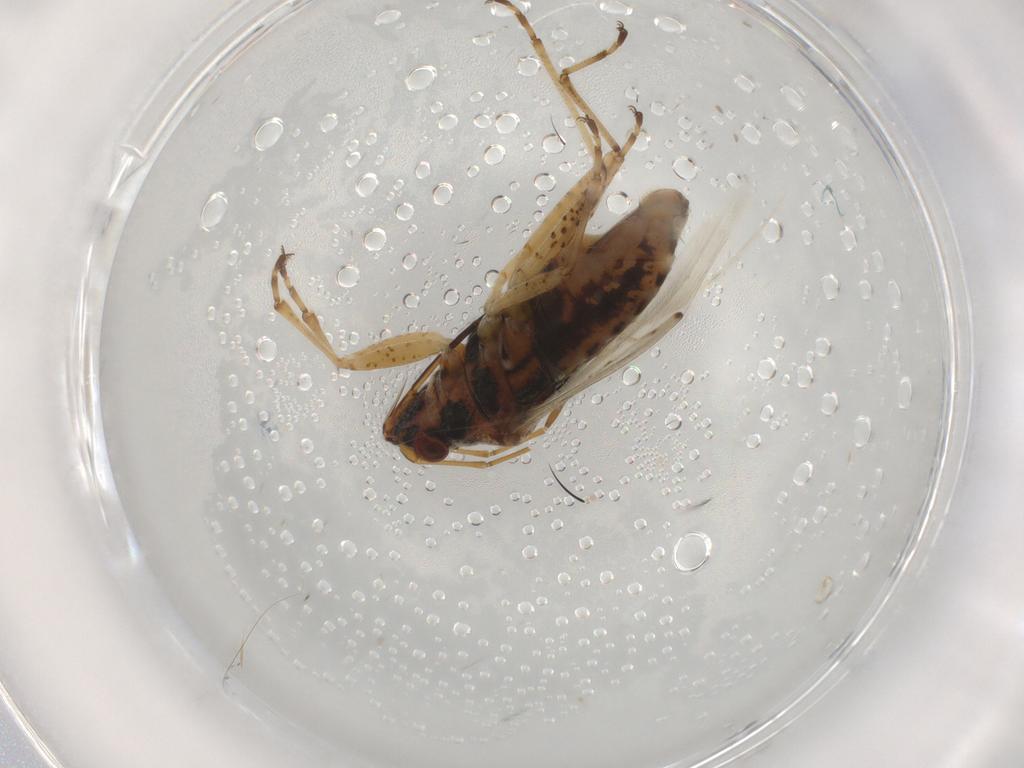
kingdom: Animalia
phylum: Arthropoda
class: Insecta
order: Hemiptera
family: Lygaeidae
